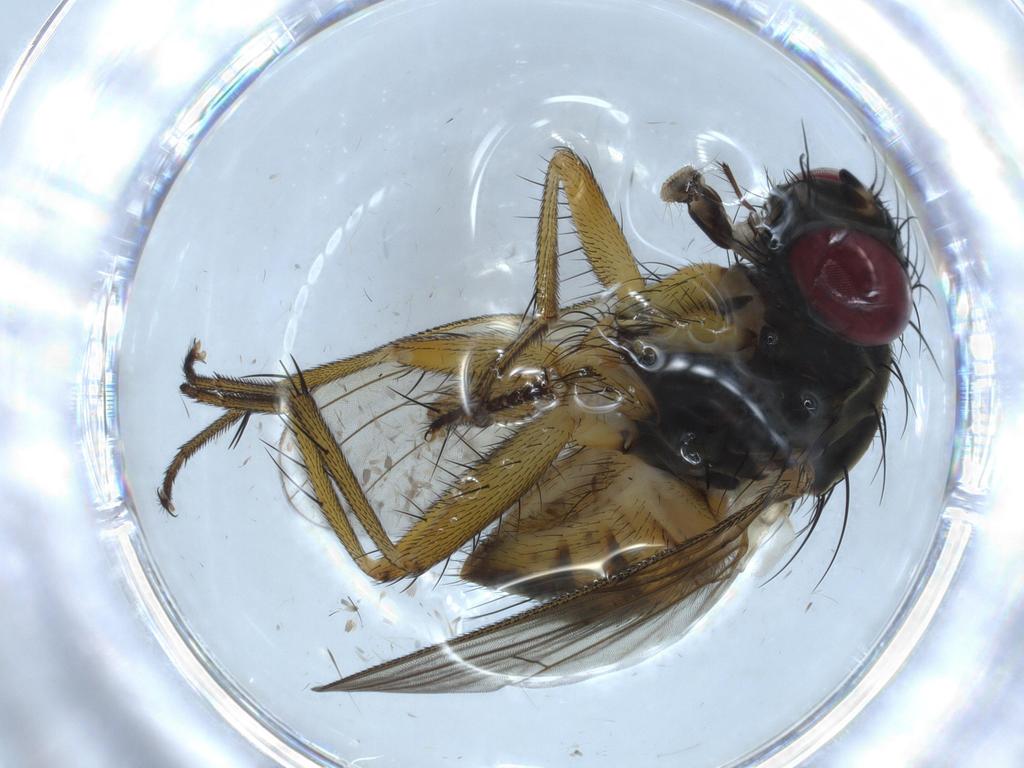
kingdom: Animalia
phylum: Arthropoda
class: Insecta
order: Diptera
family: Muscidae
